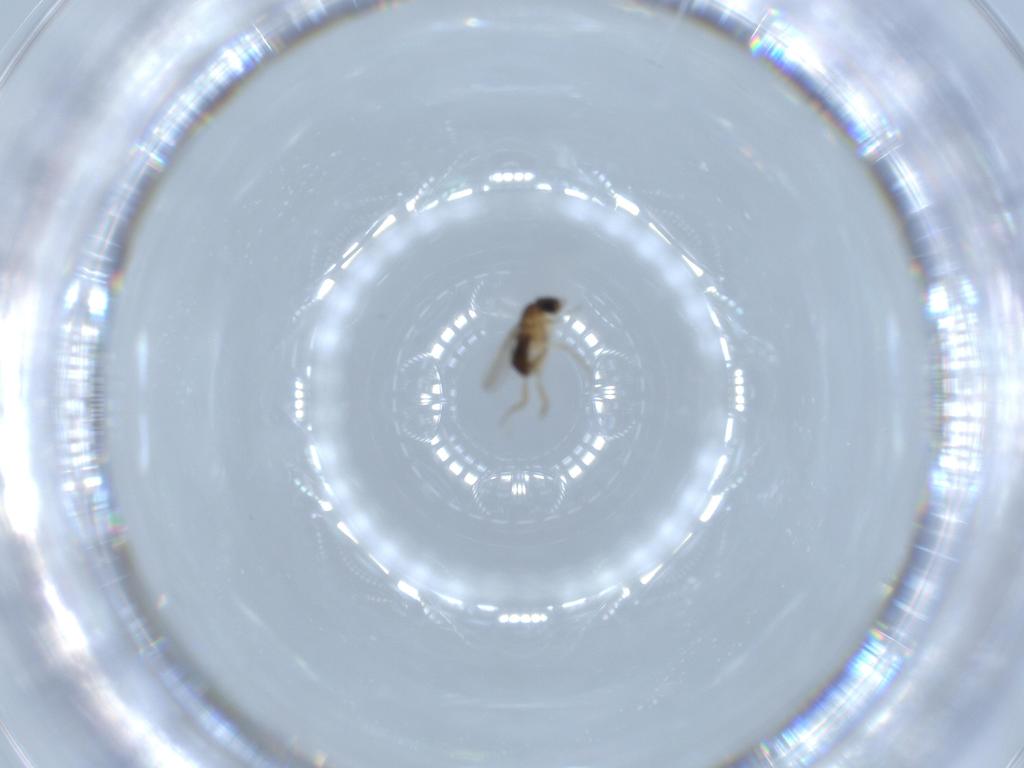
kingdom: Animalia
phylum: Arthropoda
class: Insecta
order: Diptera
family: Phoridae
